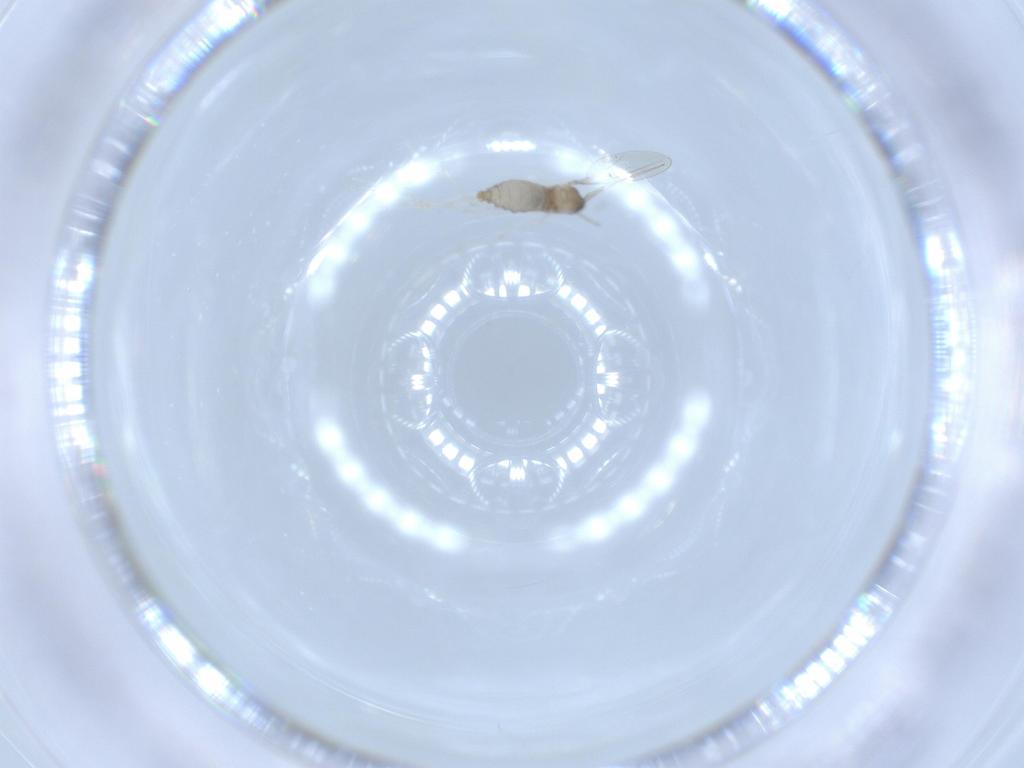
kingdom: Animalia
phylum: Arthropoda
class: Insecta
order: Diptera
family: Cecidomyiidae
